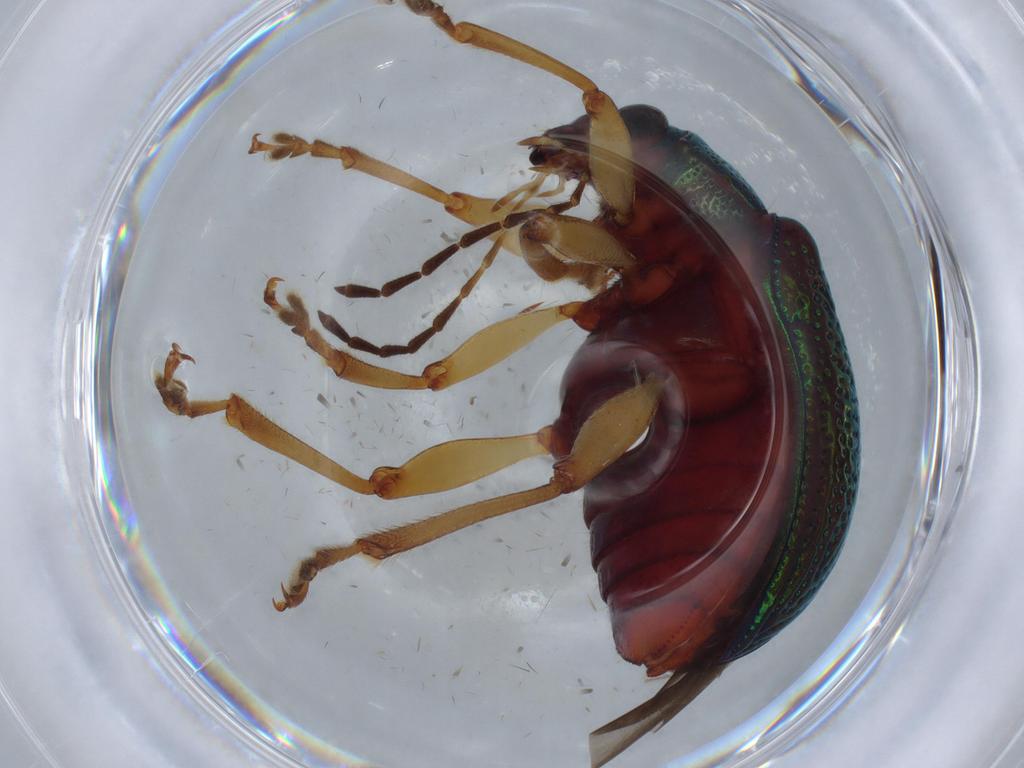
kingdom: Animalia
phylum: Arthropoda
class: Insecta
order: Coleoptera
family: Chrysomelidae
